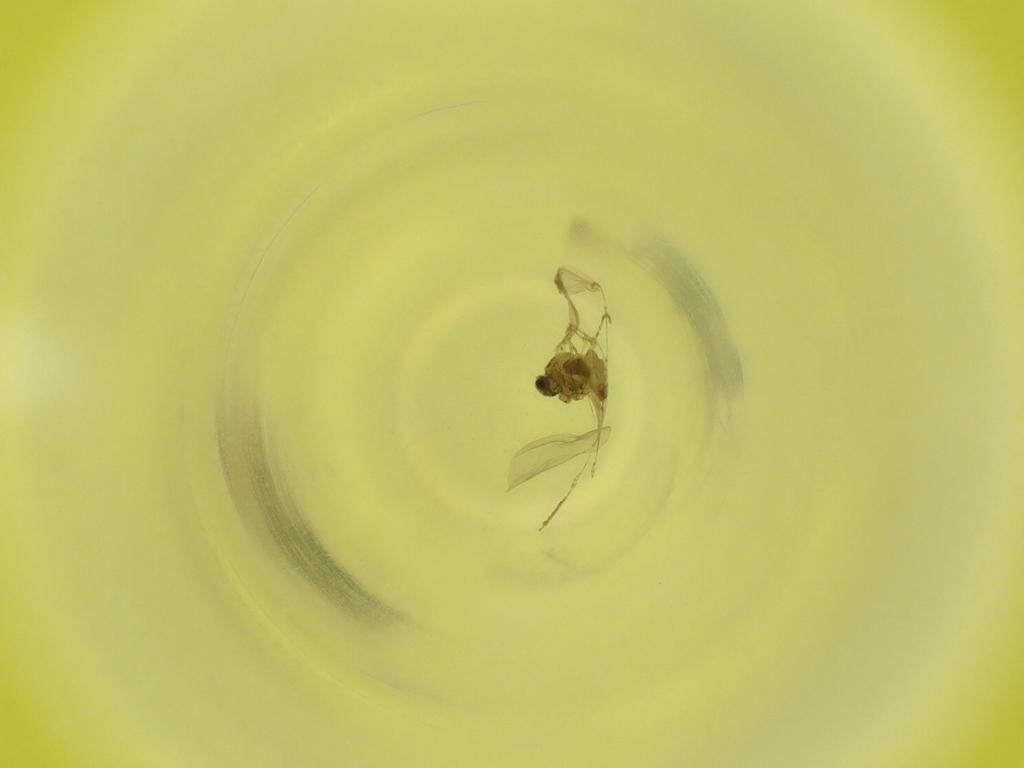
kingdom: Animalia
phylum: Arthropoda
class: Insecta
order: Diptera
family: Cecidomyiidae
